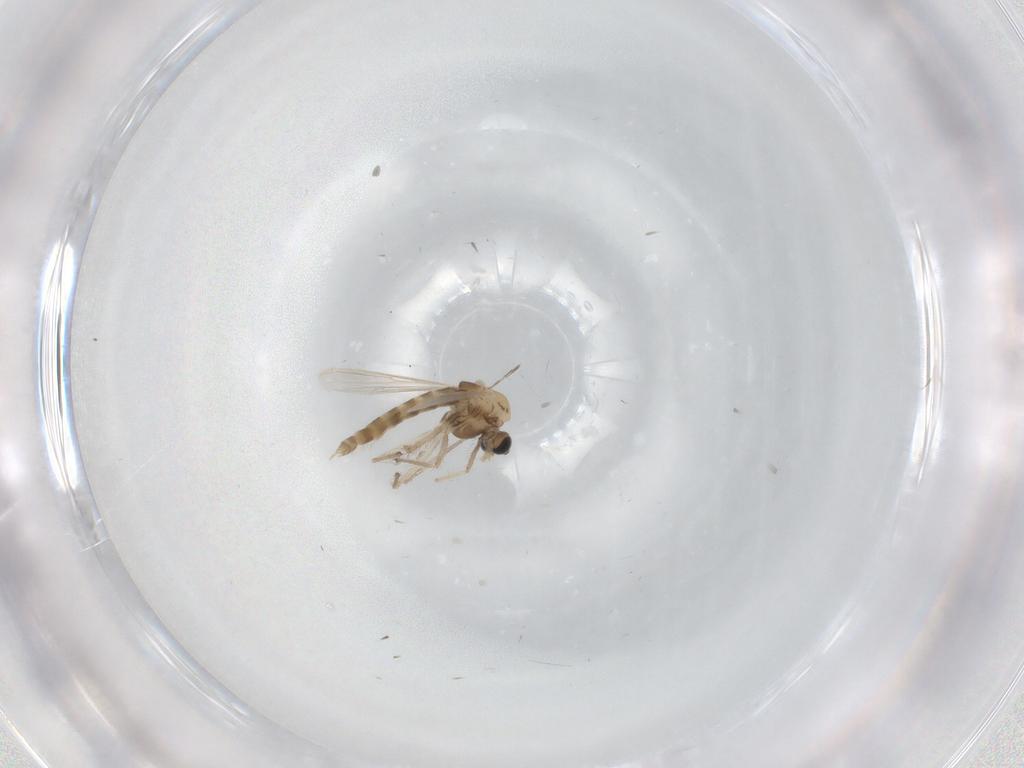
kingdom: Animalia
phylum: Arthropoda
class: Insecta
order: Diptera
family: Chironomidae
